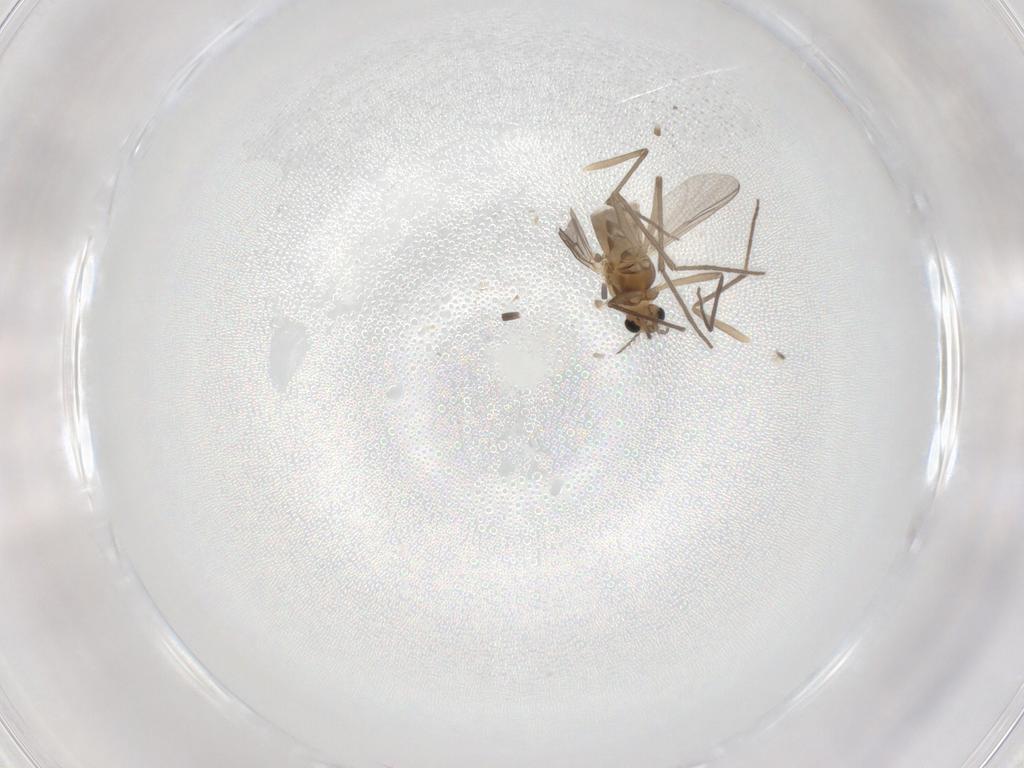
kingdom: Animalia
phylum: Arthropoda
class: Insecta
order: Diptera
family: Chironomidae
